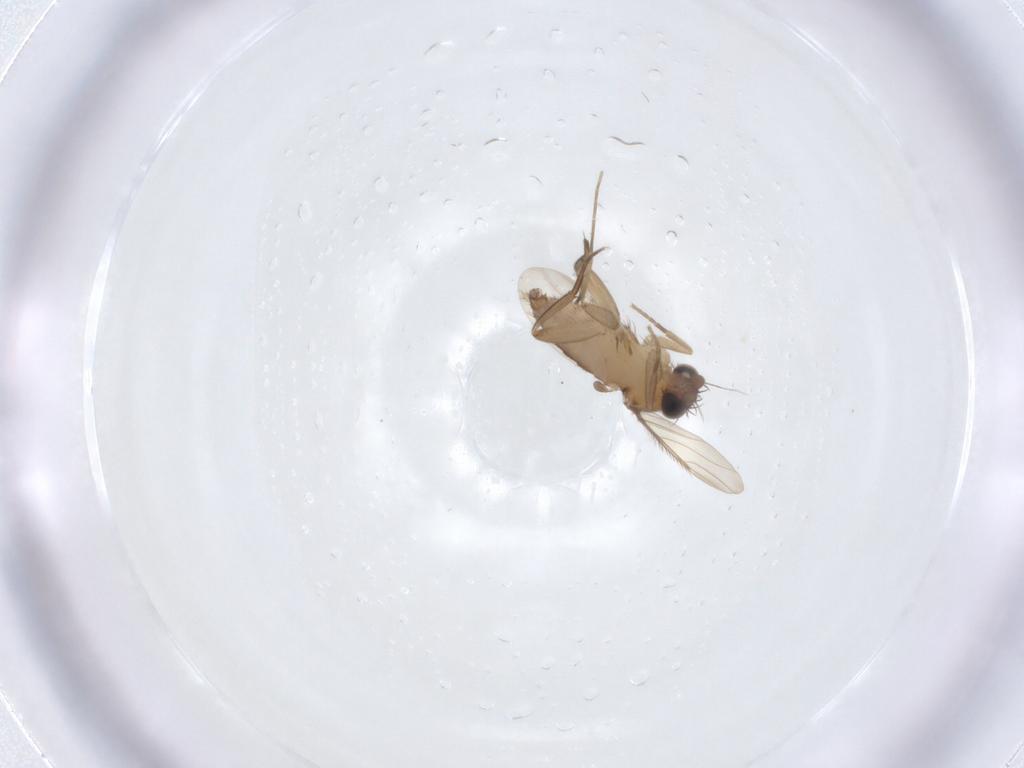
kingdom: Animalia
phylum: Arthropoda
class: Insecta
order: Diptera
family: Phoridae
